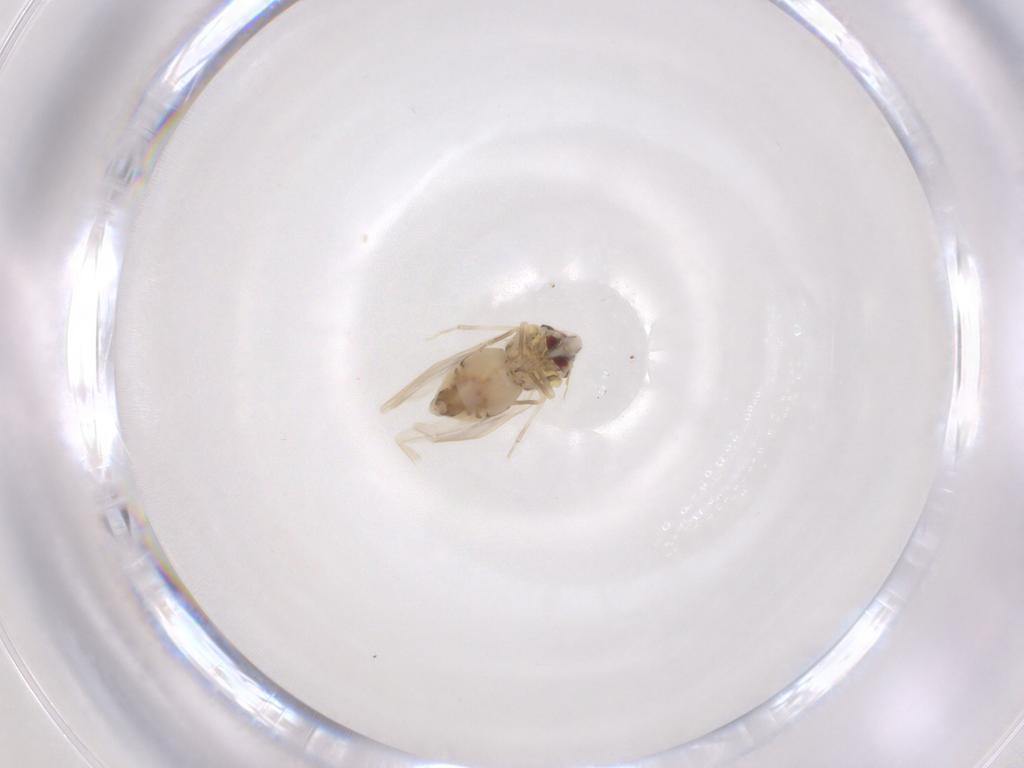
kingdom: Animalia
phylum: Arthropoda
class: Insecta
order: Hemiptera
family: Aleyrodidae
